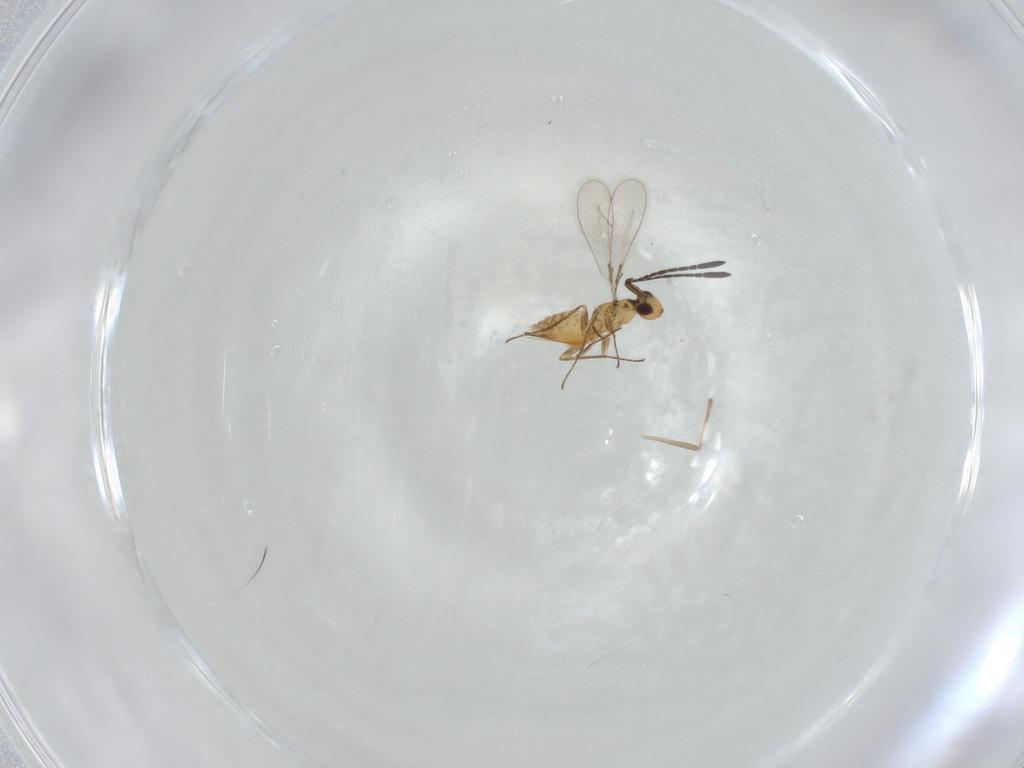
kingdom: Animalia
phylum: Arthropoda
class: Insecta
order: Hymenoptera
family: Mymaridae
